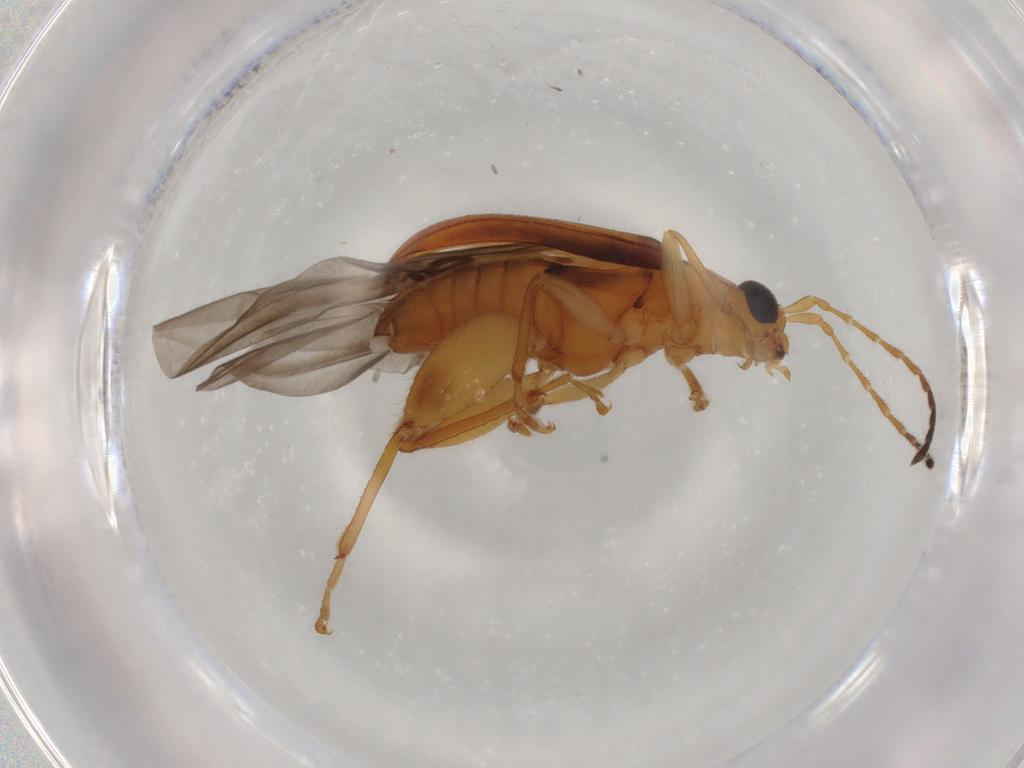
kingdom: Animalia
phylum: Arthropoda
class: Insecta
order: Coleoptera
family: Chrysomelidae
